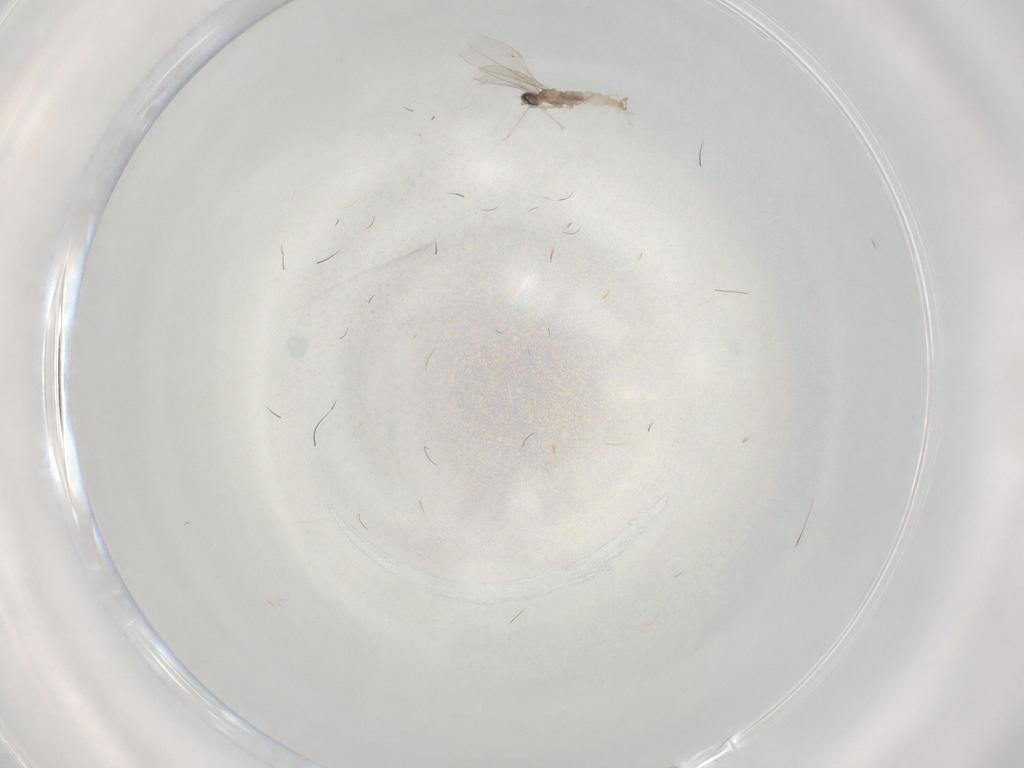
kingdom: Animalia
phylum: Arthropoda
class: Insecta
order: Diptera
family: Cecidomyiidae
